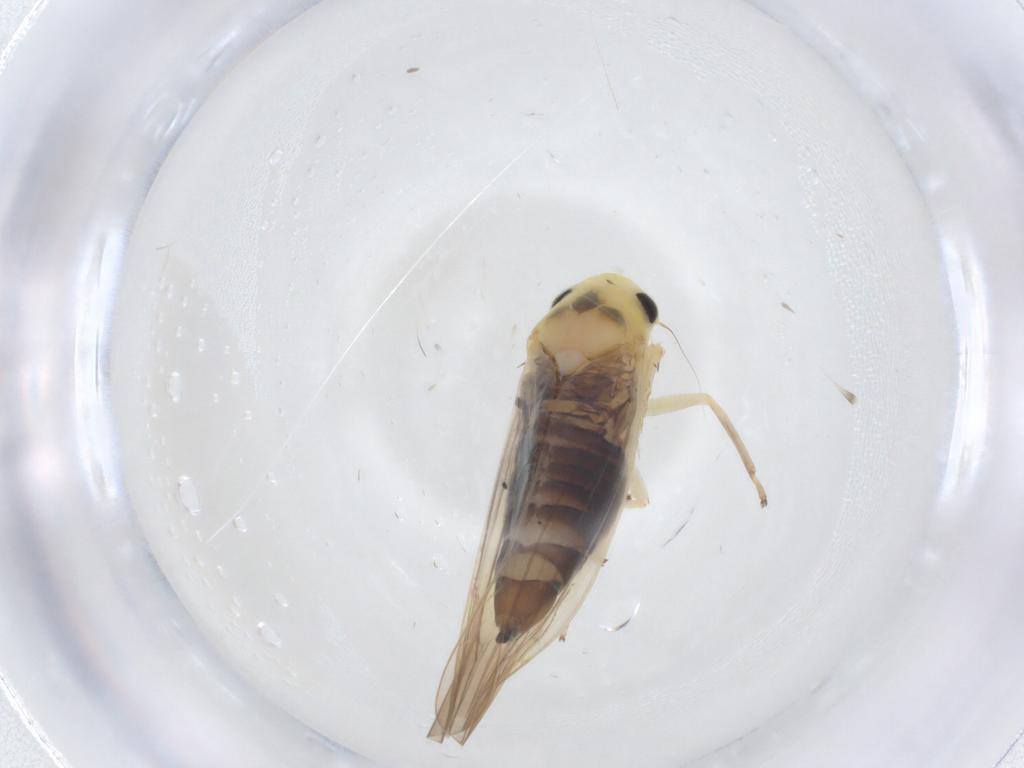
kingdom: Animalia
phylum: Arthropoda
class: Insecta
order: Hemiptera
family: Cicadellidae
